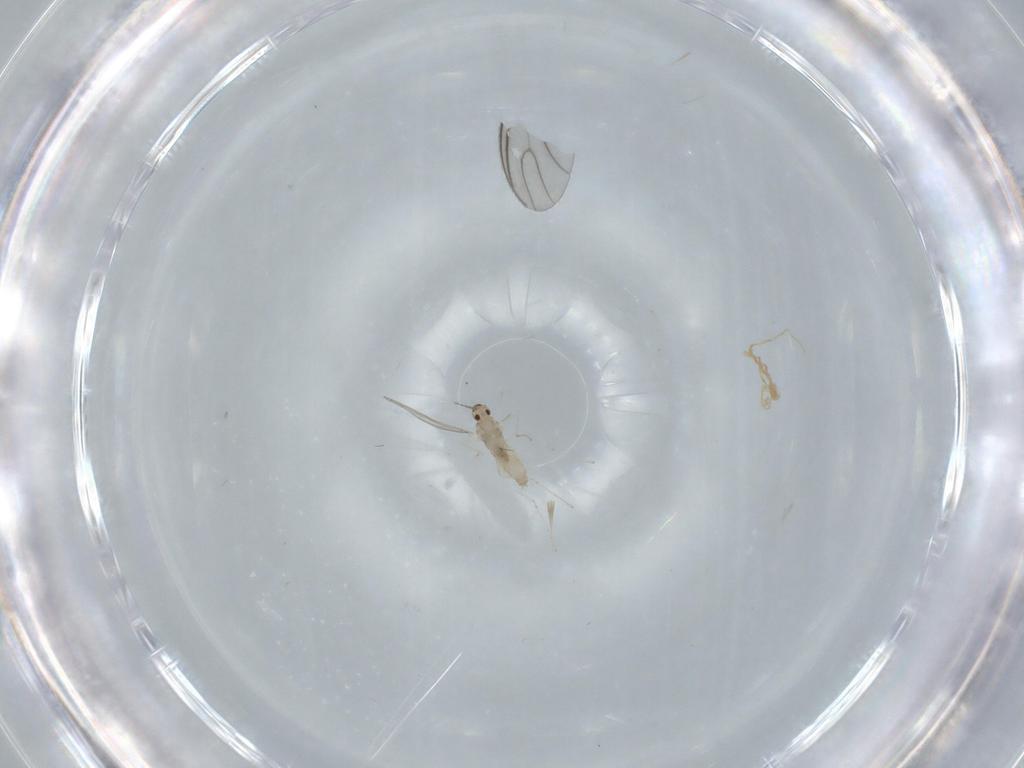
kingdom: Animalia
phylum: Arthropoda
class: Insecta
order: Diptera
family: Cecidomyiidae
